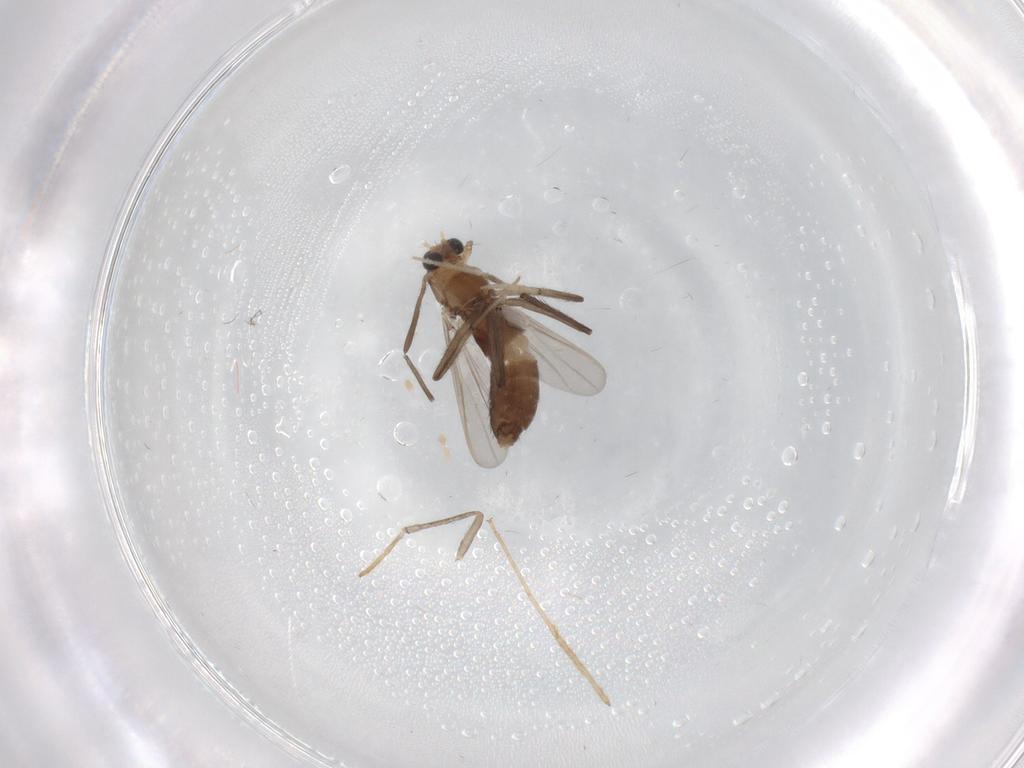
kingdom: Animalia
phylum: Arthropoda
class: Insecta
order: Diptera
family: Chironomidae
